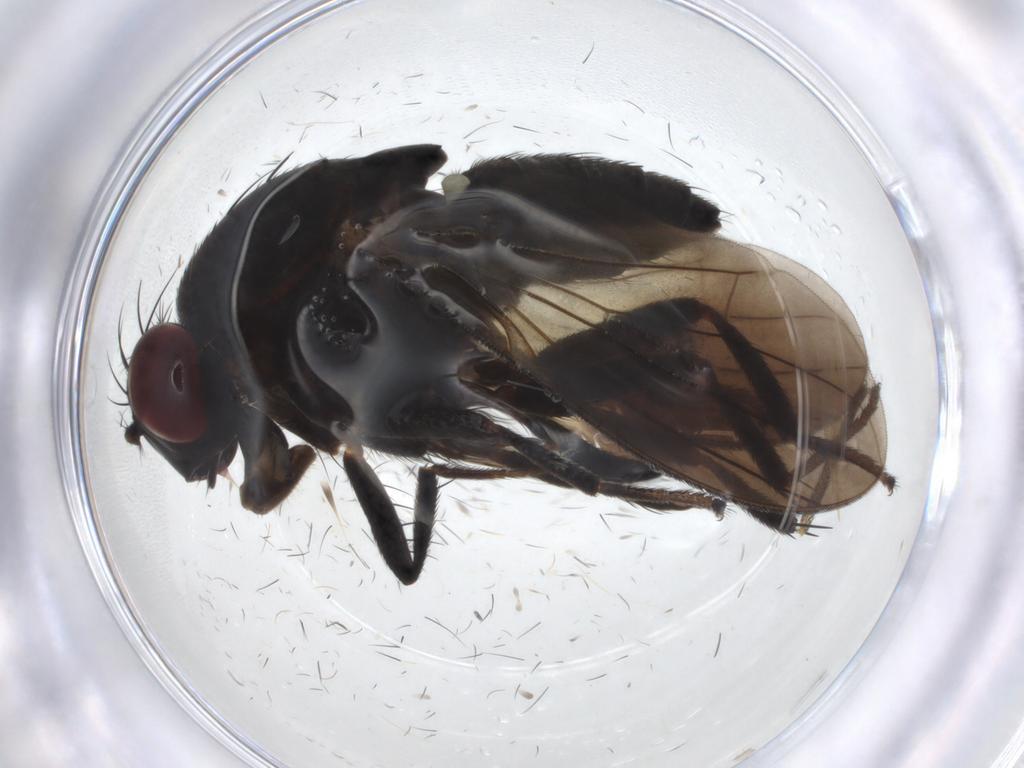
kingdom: Animalia
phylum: Arthropoda
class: Insecta
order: Diptera
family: Tabanidae
